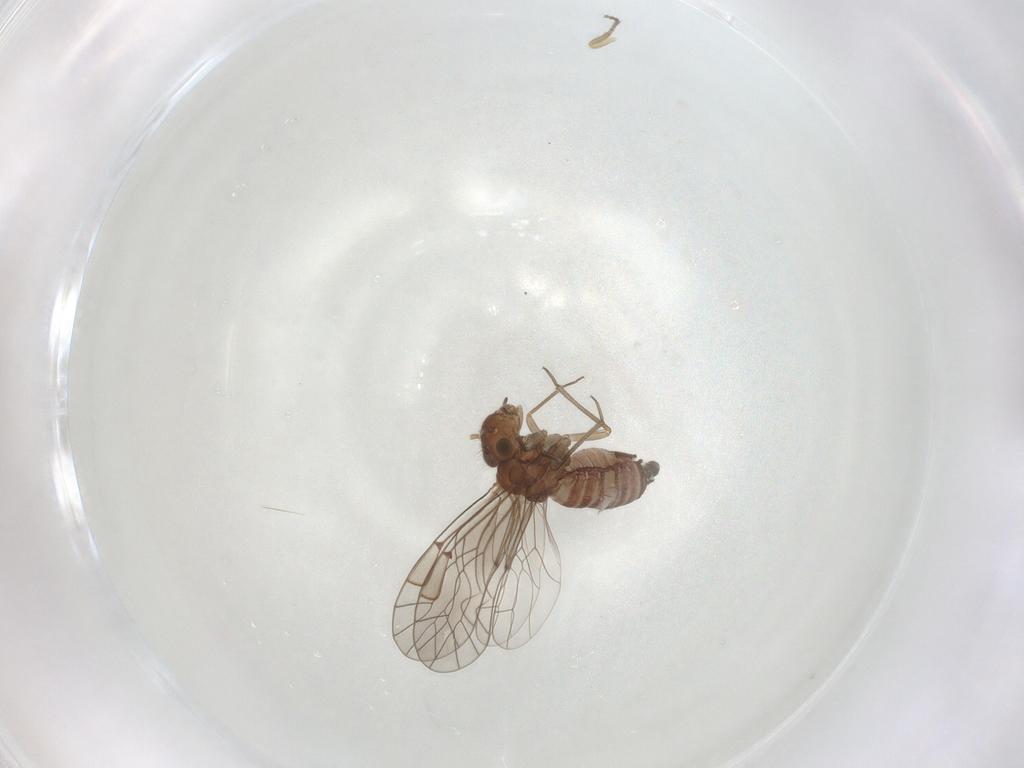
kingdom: Animalia
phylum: Arthropoda
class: Insecta
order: Psocodea
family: Lachesillidae
